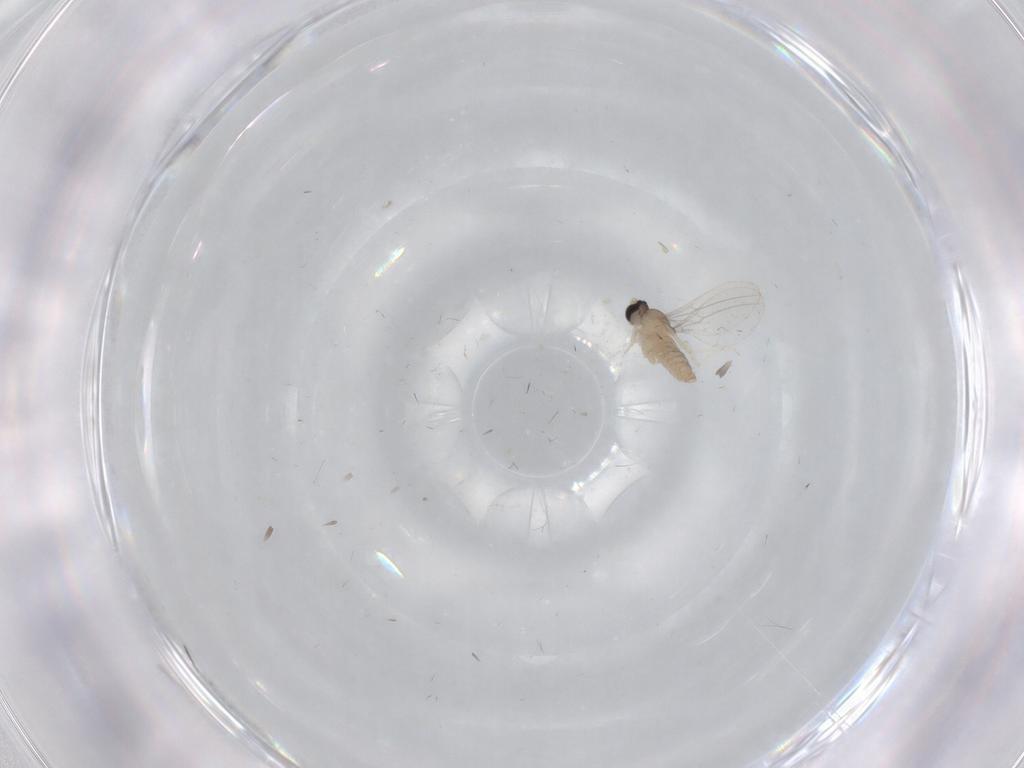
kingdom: Animalia
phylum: Arthropoda
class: Insecta
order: Diptera
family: Cecidomyiidae
